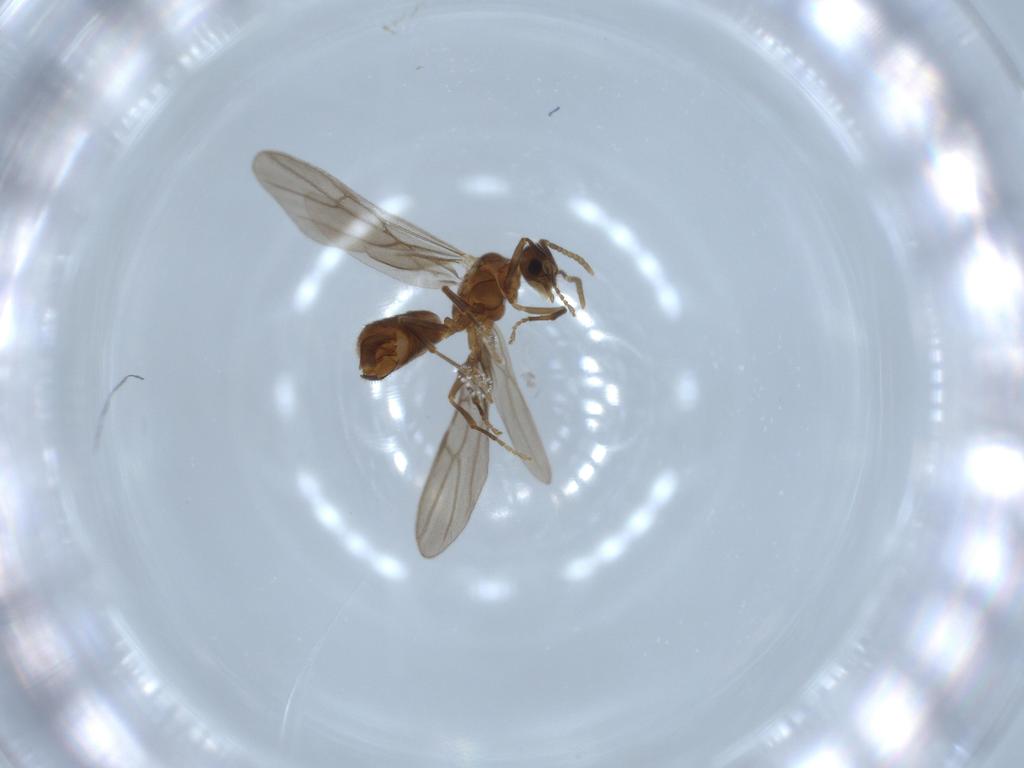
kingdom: Animalia
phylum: Arthropoda
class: Insecta
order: Hymenoptera
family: Formicidae
